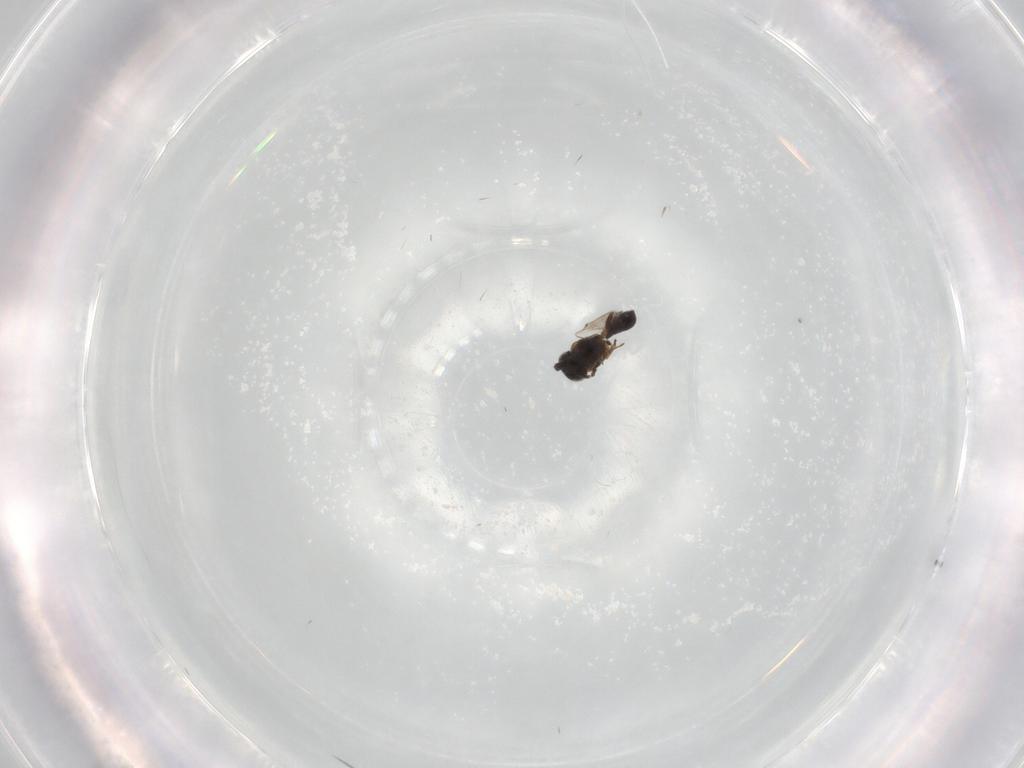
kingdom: Animalia
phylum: Arthropoda
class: Insecta
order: Hymenoptera
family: Scelionidae
